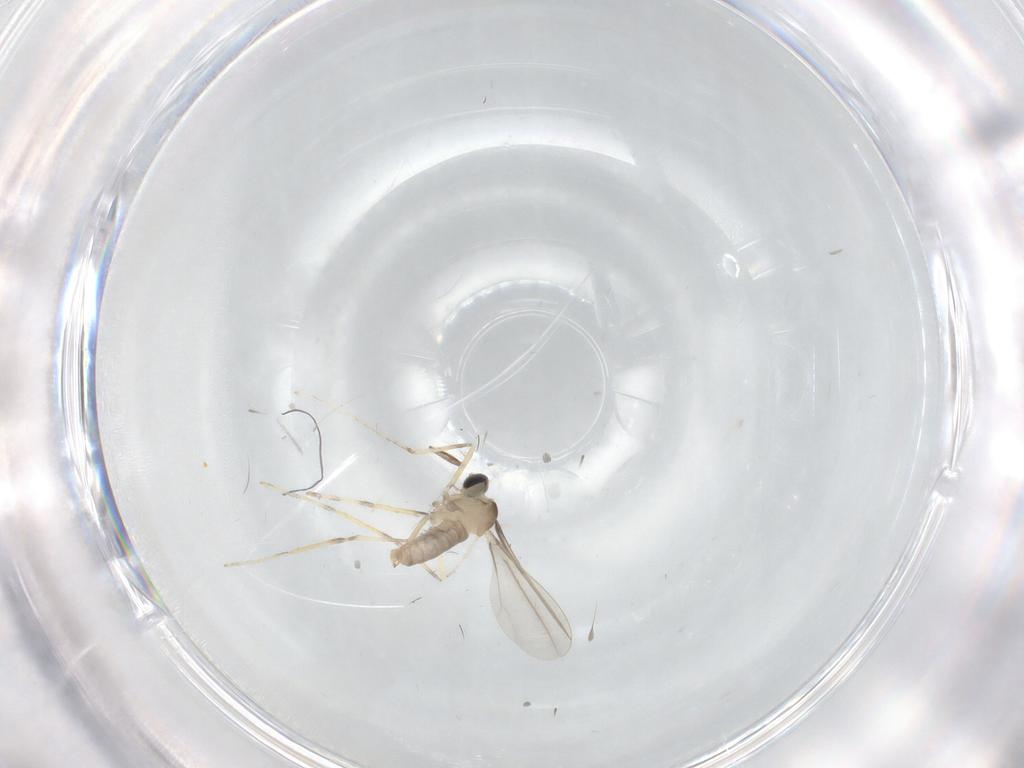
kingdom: Animalia
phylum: Arthropoda
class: Insecta
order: Diptera
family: Cecidomyiidae
